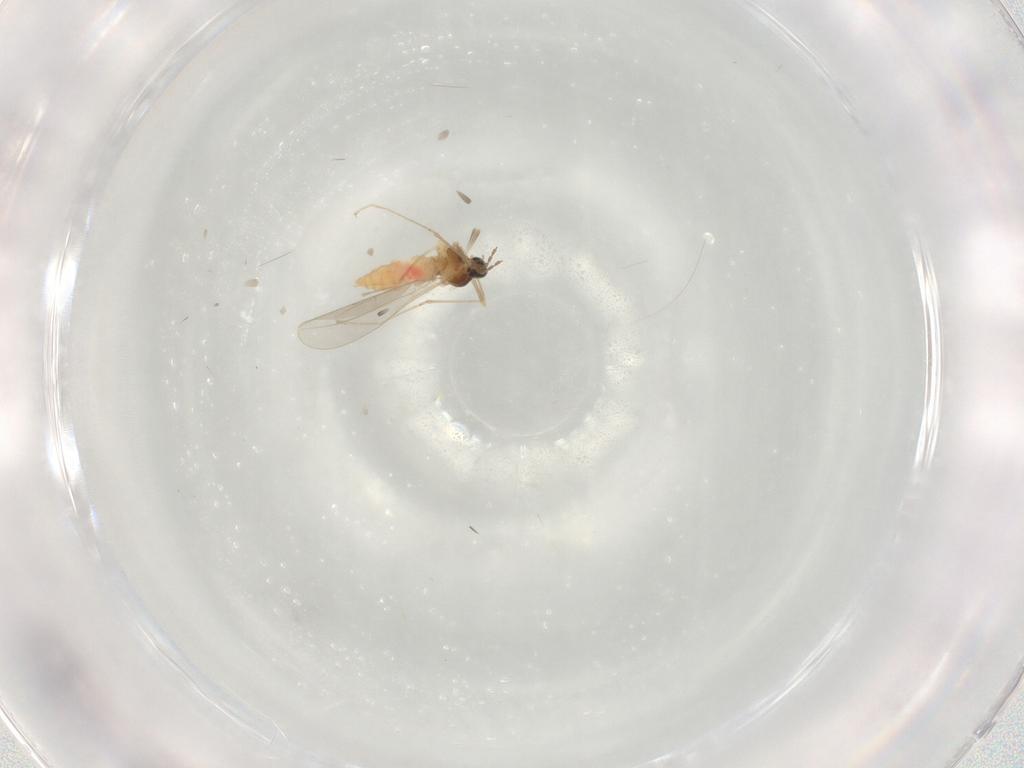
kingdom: Animalia
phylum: Arthropoda
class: Insecta
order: Diptera
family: Cecidomyiidae
